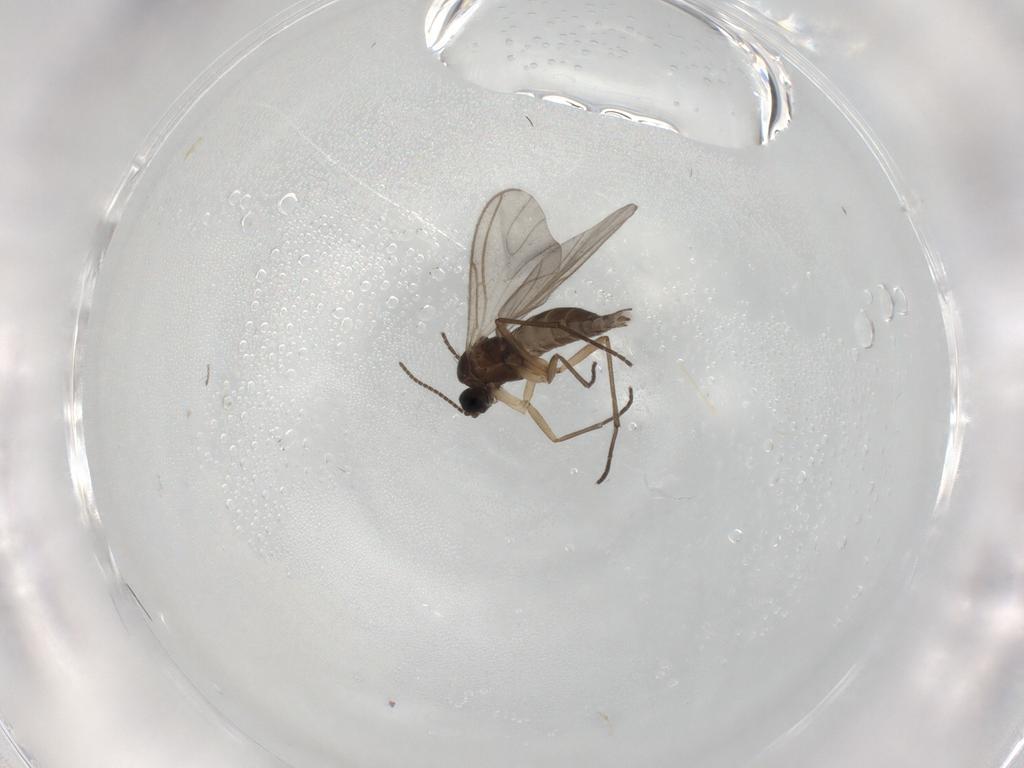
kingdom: Animalia
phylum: Arthropoda
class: Insecta
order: Diptera
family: Sciaridae
